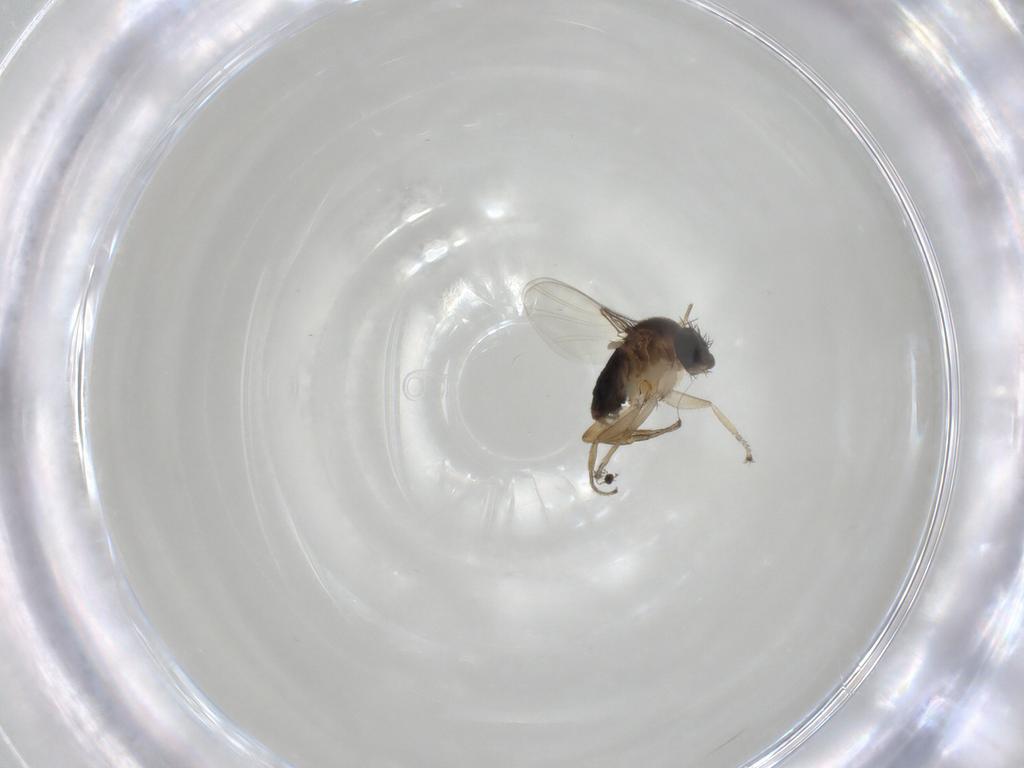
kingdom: Animalia
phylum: Arthropoda
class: Insecta
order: Diptera
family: Phoridae
